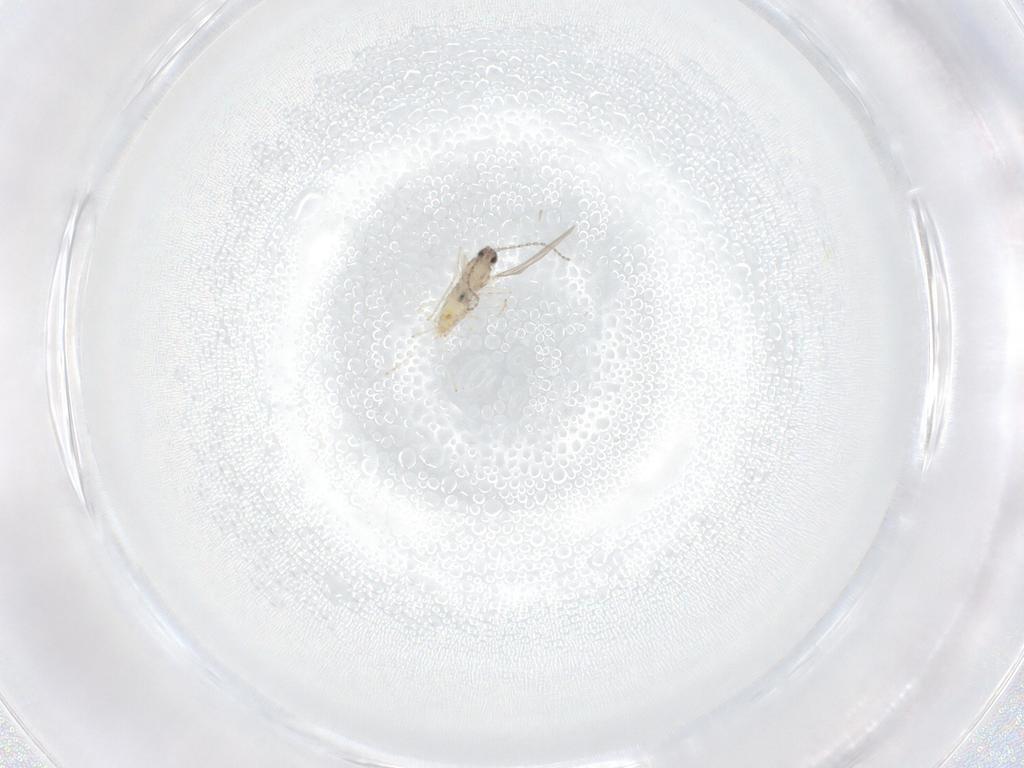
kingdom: Animalia
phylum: Arthropoda
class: Insecta
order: Diptera
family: Cecidomyiidae
